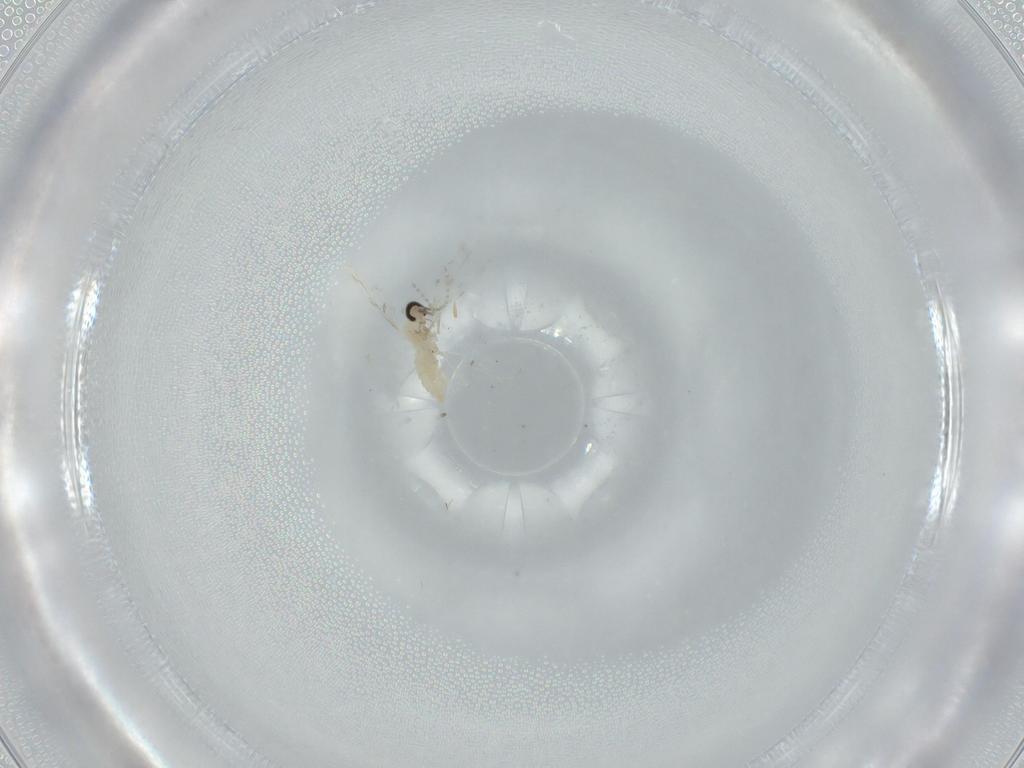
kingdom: Animalia
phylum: Arthropoda
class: Insecta
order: Diptera
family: Cecidomyiidae
